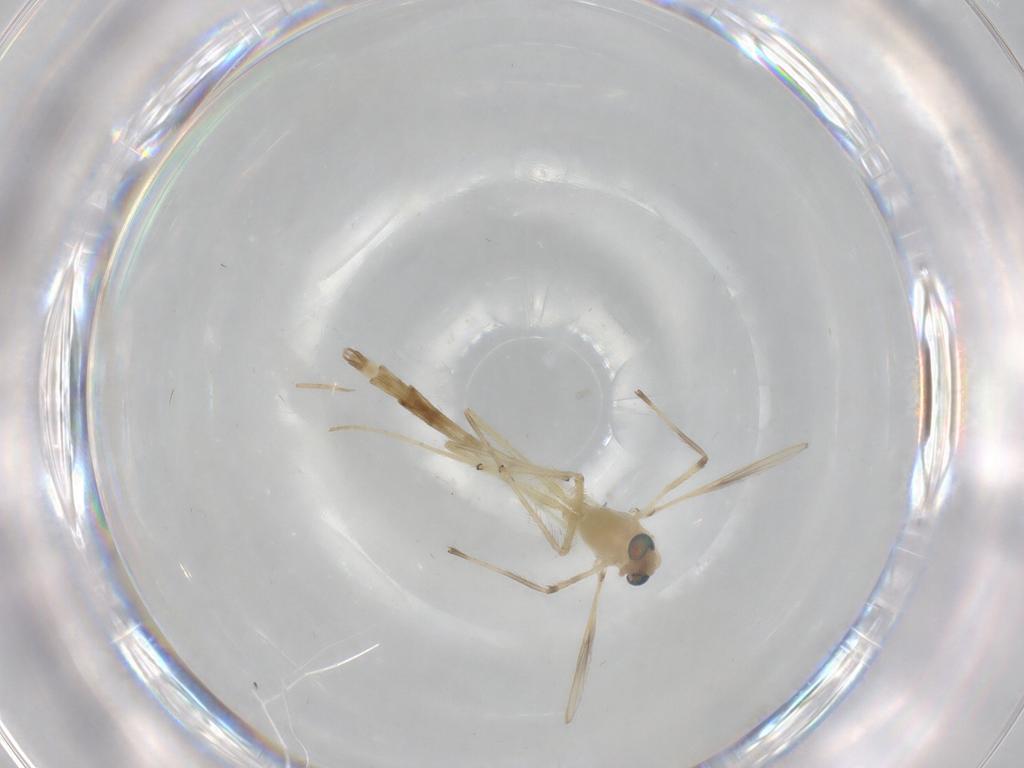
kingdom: Animalia
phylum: Arthropoda
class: Insecta
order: Diptera
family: Chironomidae
